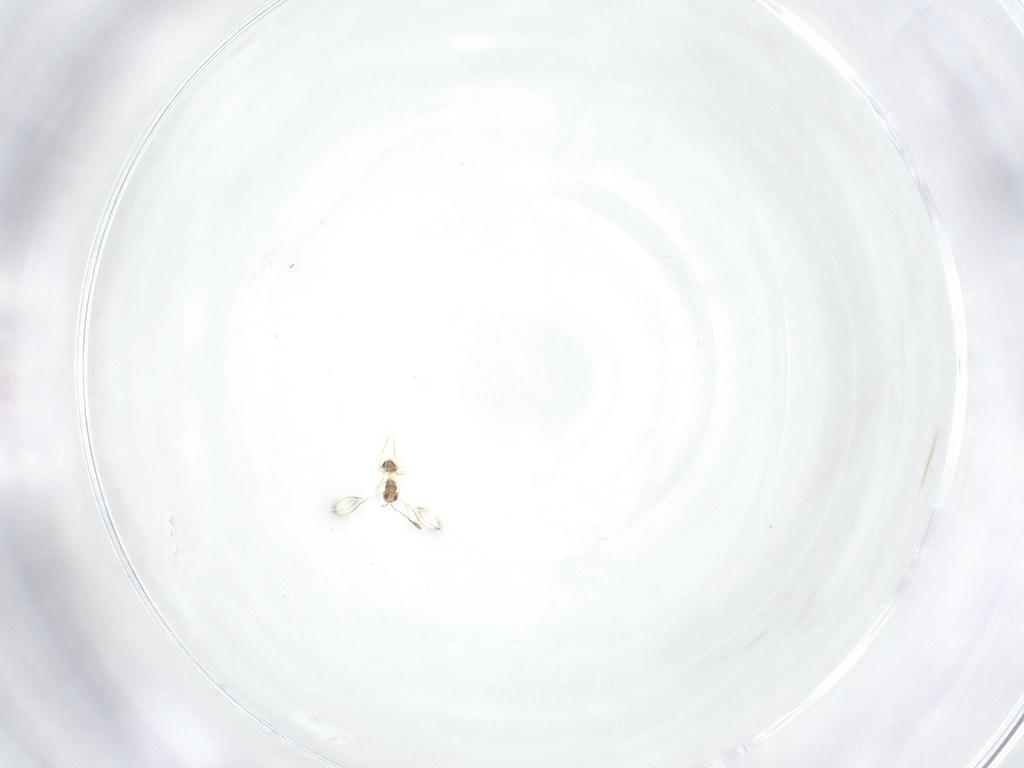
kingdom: Animalia
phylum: Arthropoda
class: Insecta
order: Hymenoptera
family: Mymarommatidae
